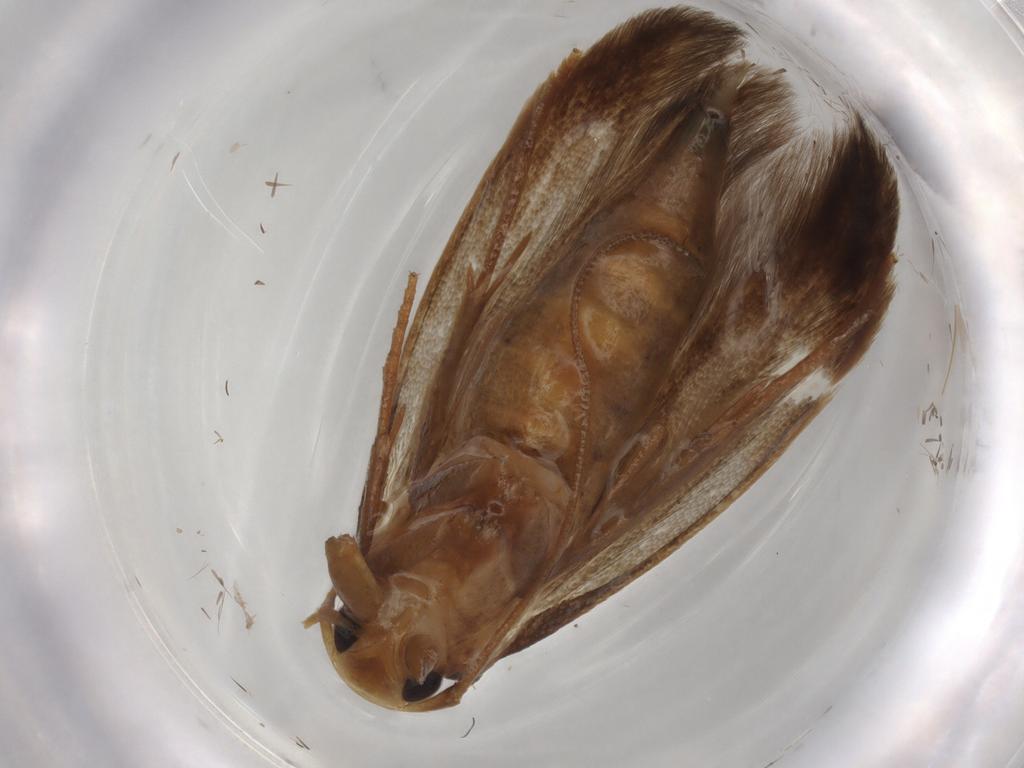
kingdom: Animalia
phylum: Arthropoda
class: Insecta
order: Lepidoptera
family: Tineidae
